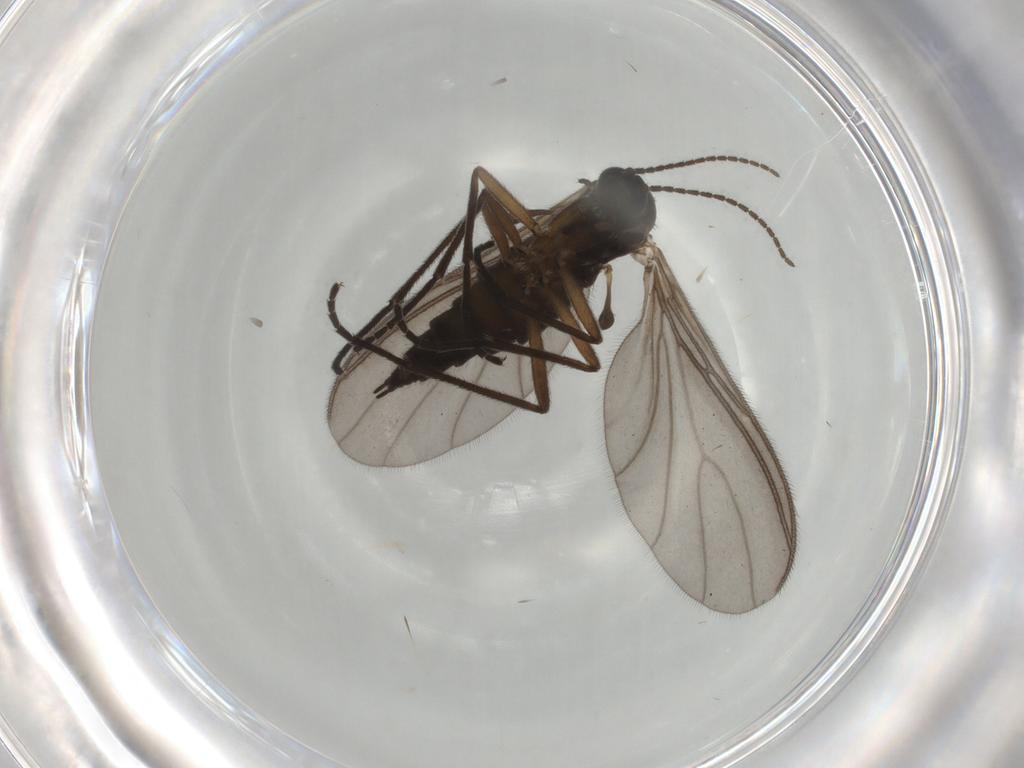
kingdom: Animalia
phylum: Arthropoda
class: Insecta
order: Diptera
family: Sciaridae
